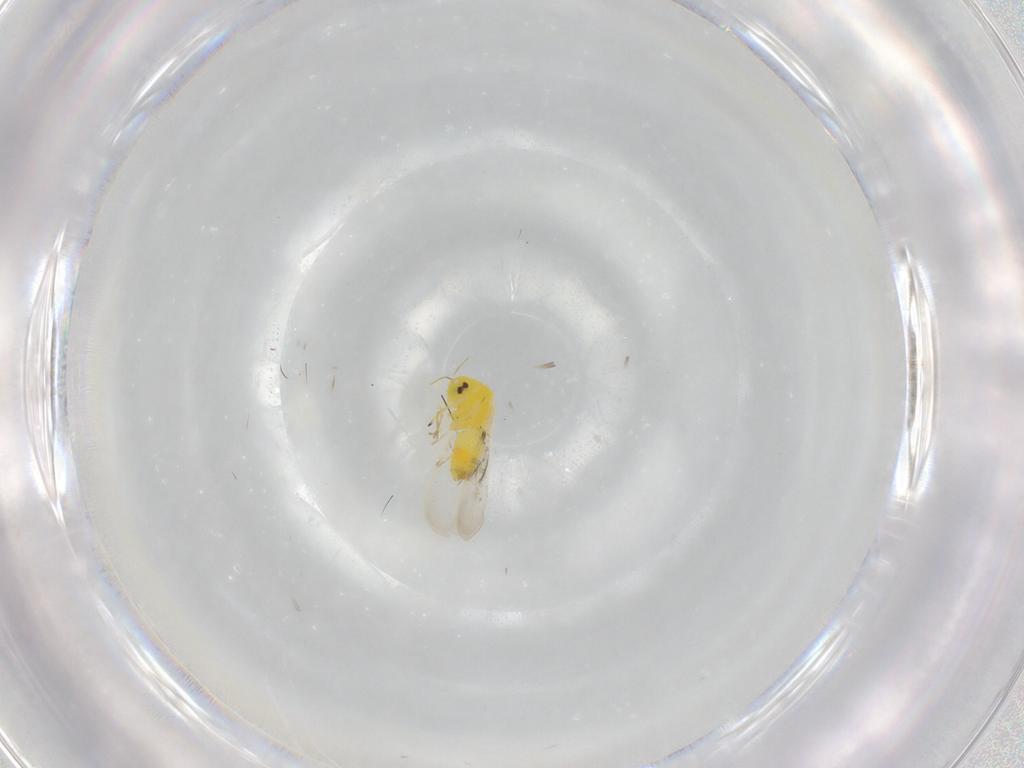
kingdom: Animalia
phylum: Arthropoda
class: Insecta
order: Hemiptera
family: Aleyrodidae
